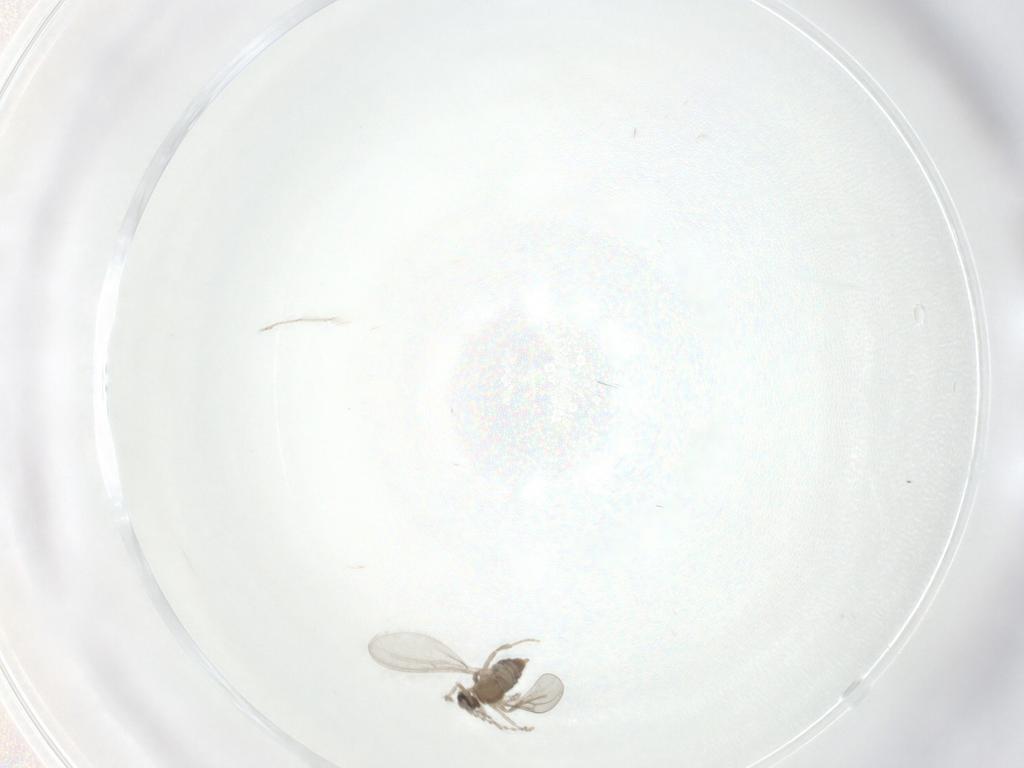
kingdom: Animalia
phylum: Arthropoda
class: Insecta
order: Diptera
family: Cecidomyiidae
